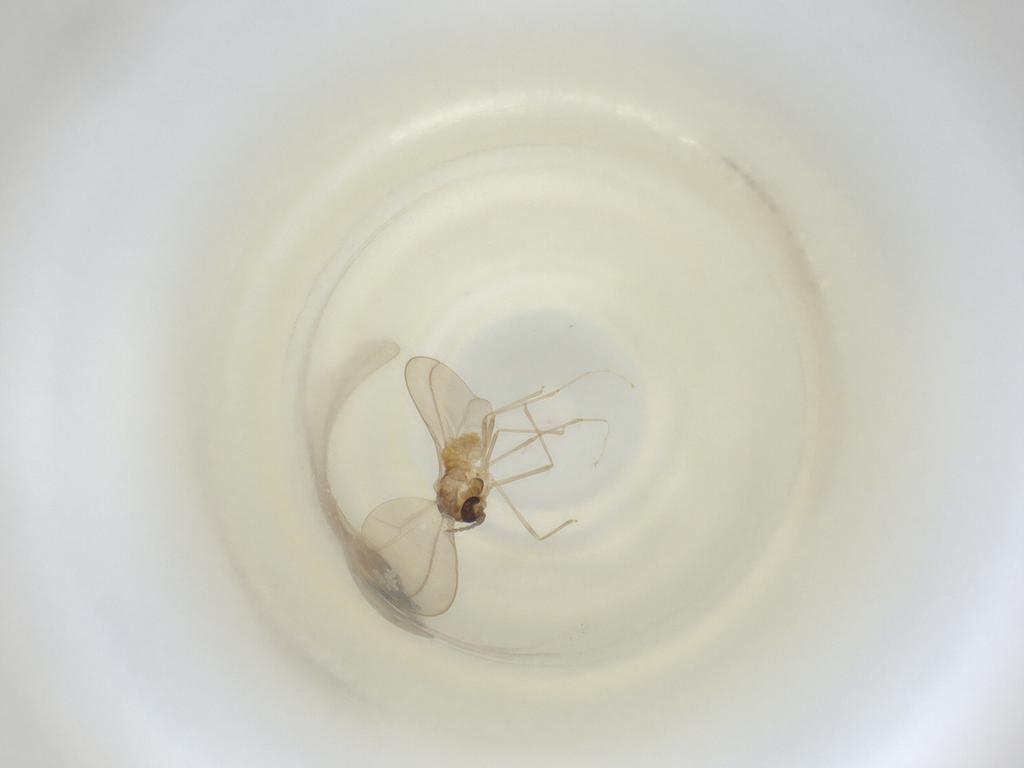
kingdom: Animalia
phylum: Arthropoda
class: Insecta
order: Diptera
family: Cecidomyiidae
